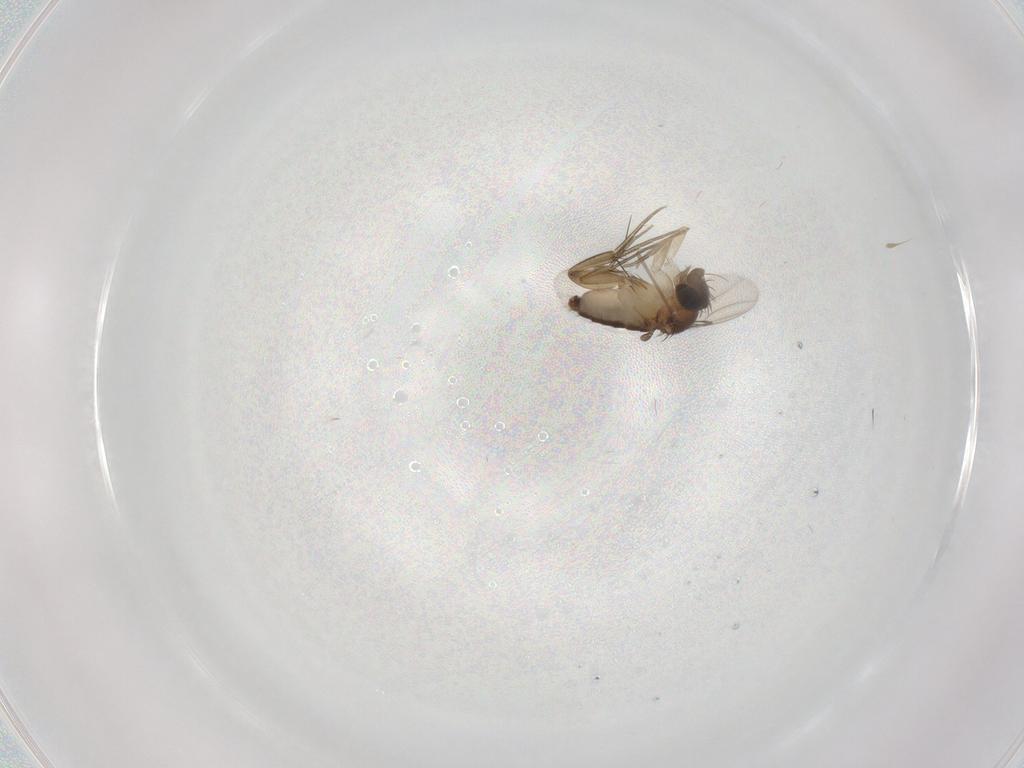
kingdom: Animalia
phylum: Arthropoda
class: Insecta
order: Diptera
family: Phoridae
